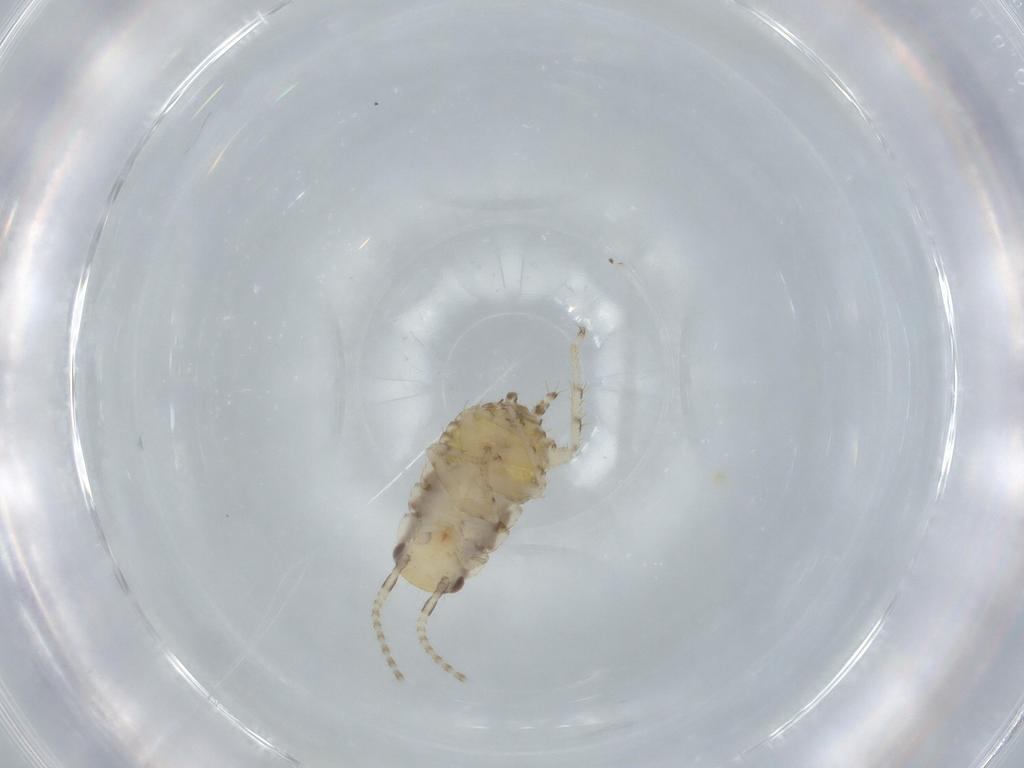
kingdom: Animalia
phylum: Arthropoda
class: Insecta
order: Blattodea
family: Ectobiidae
